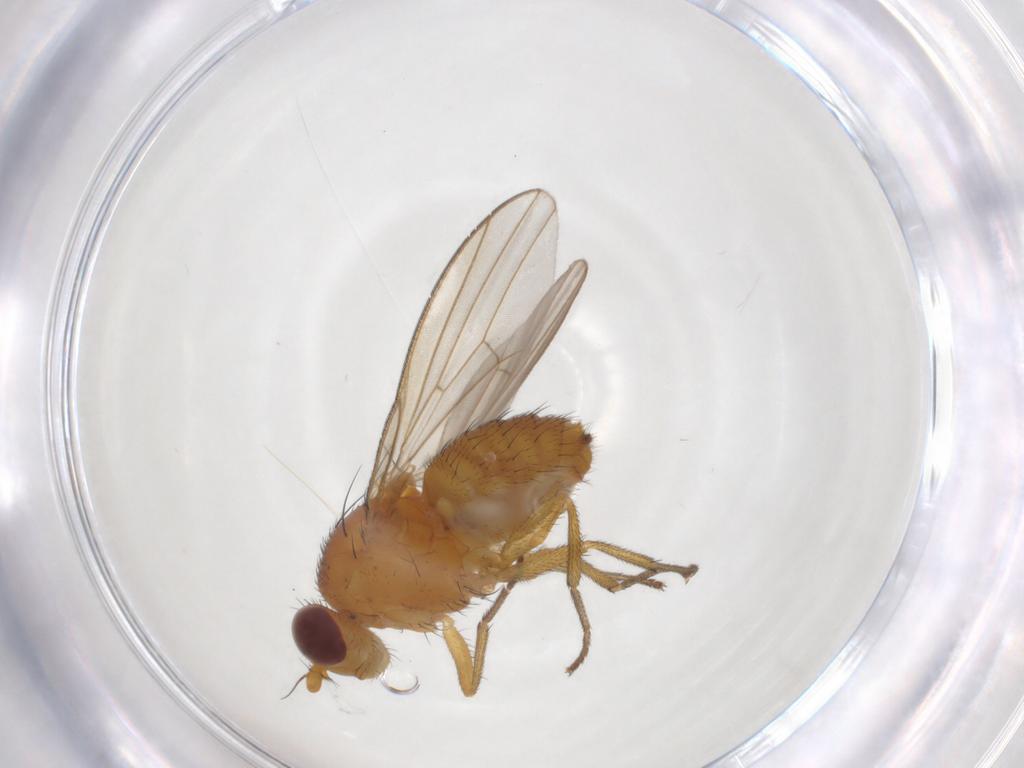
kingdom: Animalia
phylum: Arthropoda
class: Insecta
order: Diptera
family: Lauxaniidae
